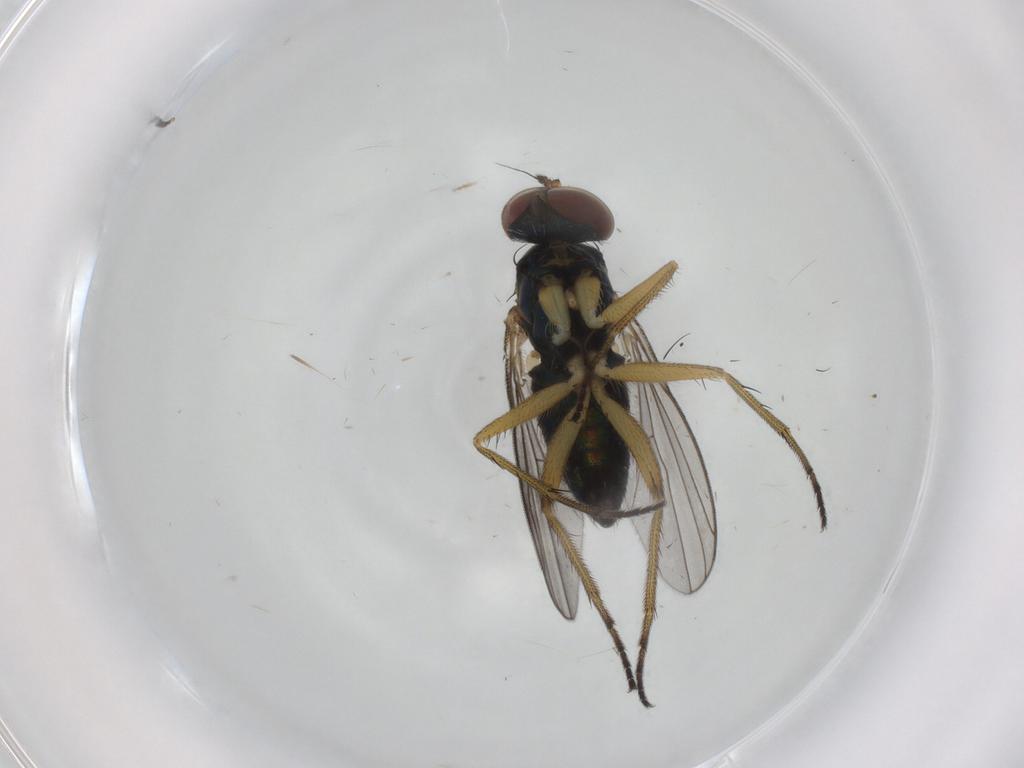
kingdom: Animalia
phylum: Arthropoda
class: Insecta
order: Diptera
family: Dolichopodidae
